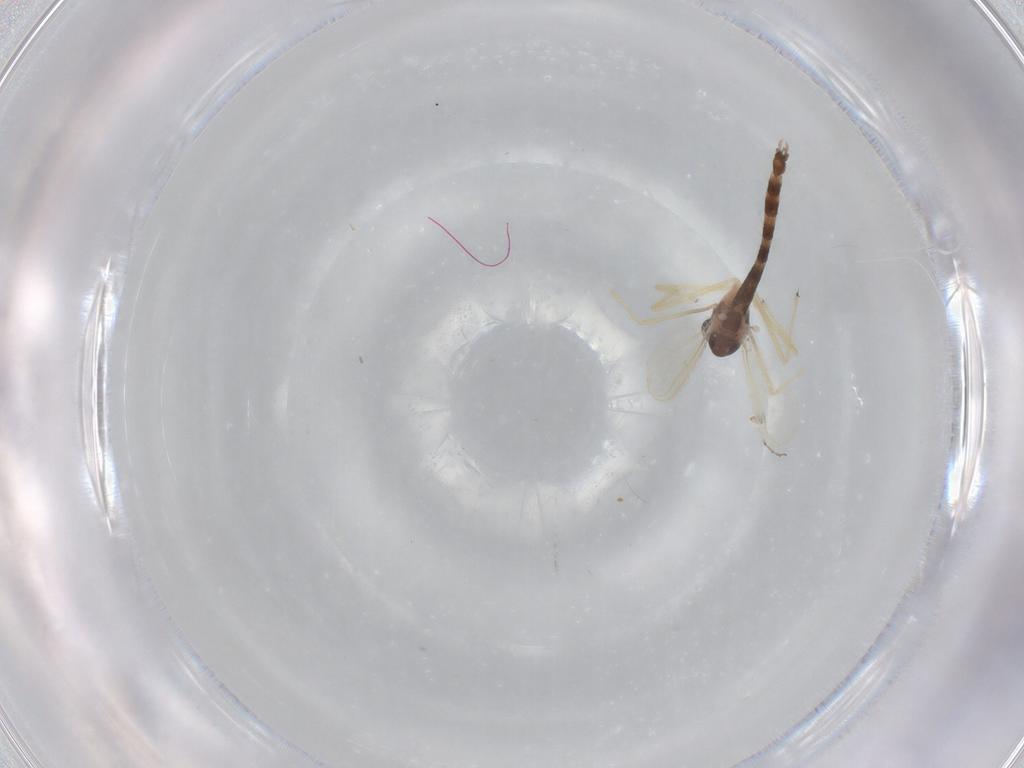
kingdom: Animalia
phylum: Arthropoda
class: Insecta
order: Diptera
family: Chironomidae
